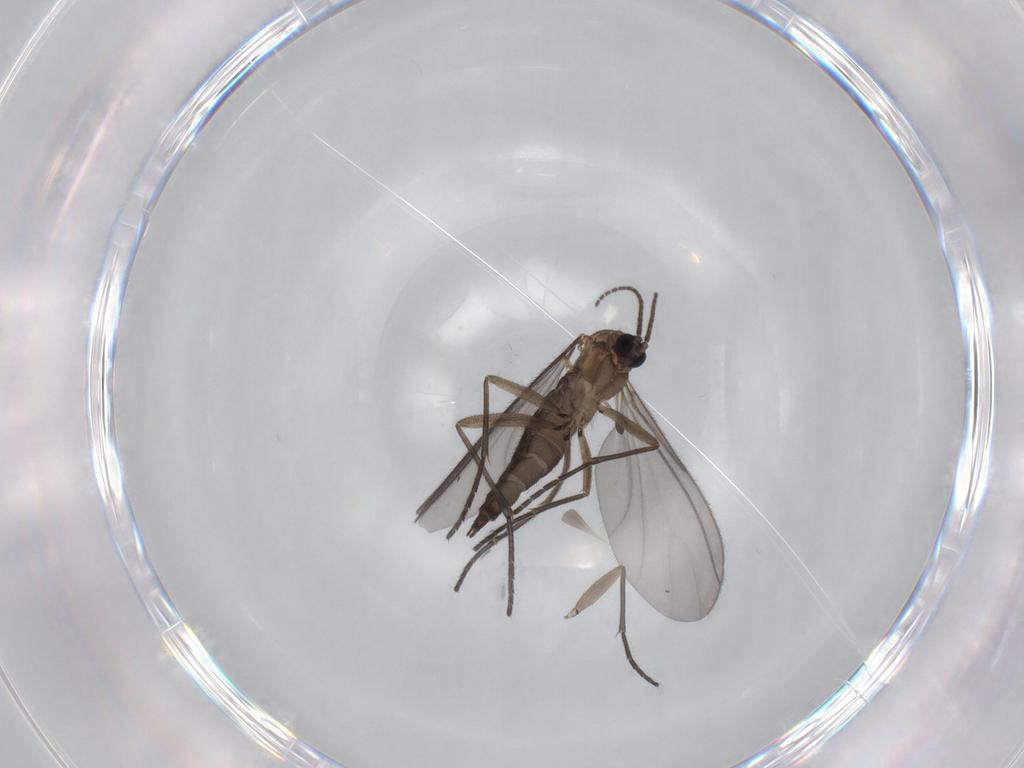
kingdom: Animalia
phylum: Arthropoda
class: Insecta
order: Diptera
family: Sciaridae
